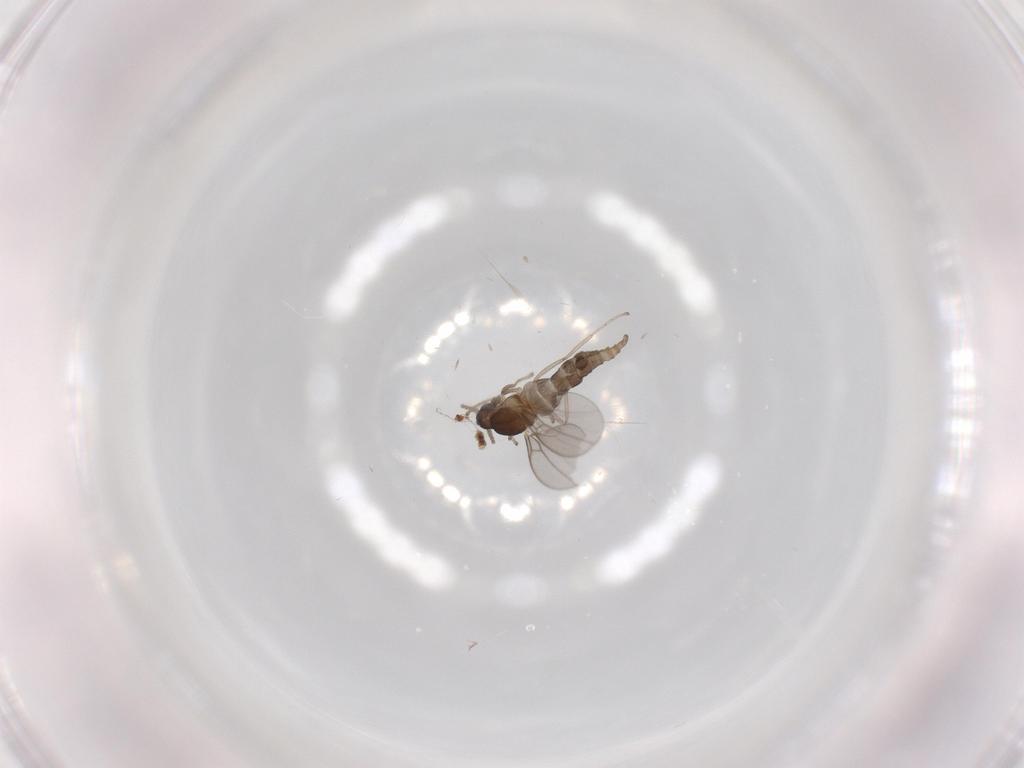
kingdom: Animalia
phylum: Arthropoda
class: Insecta
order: Diptera
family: Cecidomyiidae
